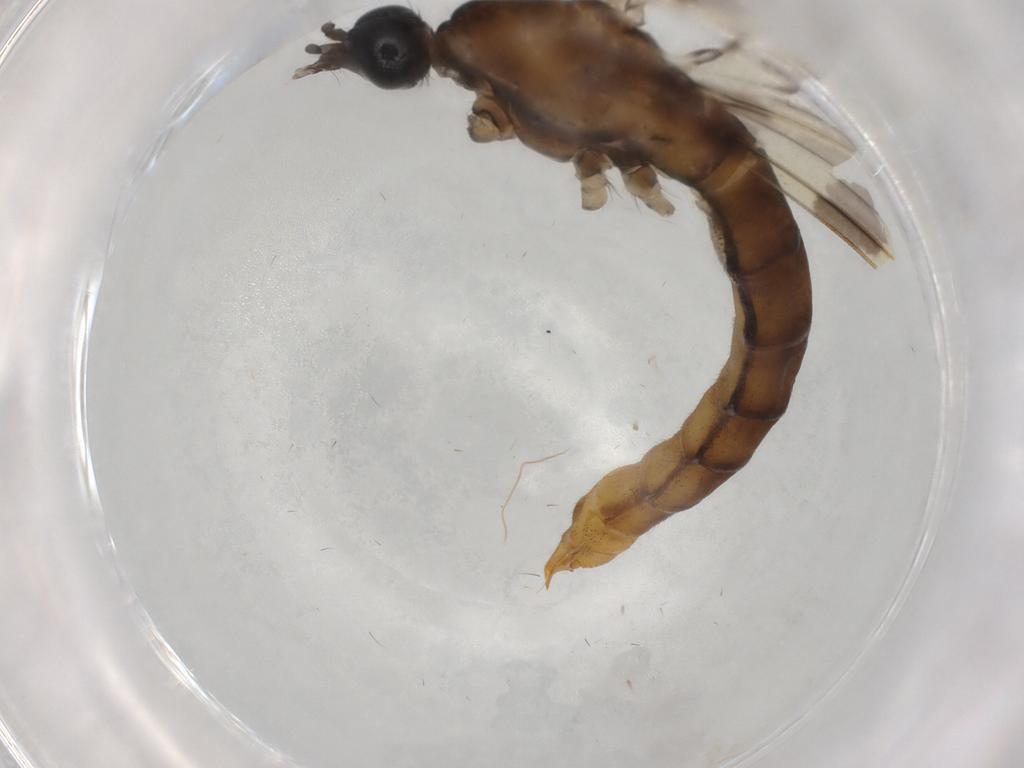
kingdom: Animalia
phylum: Arthropoda
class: Insecta
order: Diptera
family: Sciaridae
